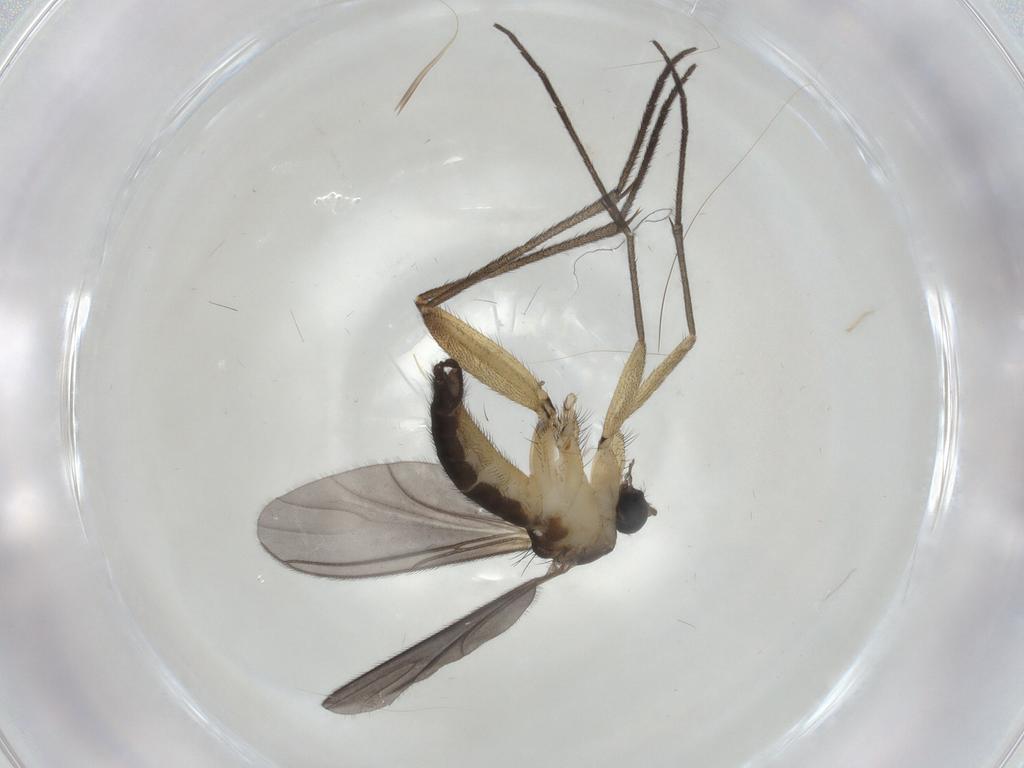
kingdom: Animalia
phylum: Arthropoda
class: Insecta
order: Diptera
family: Sciaridae
